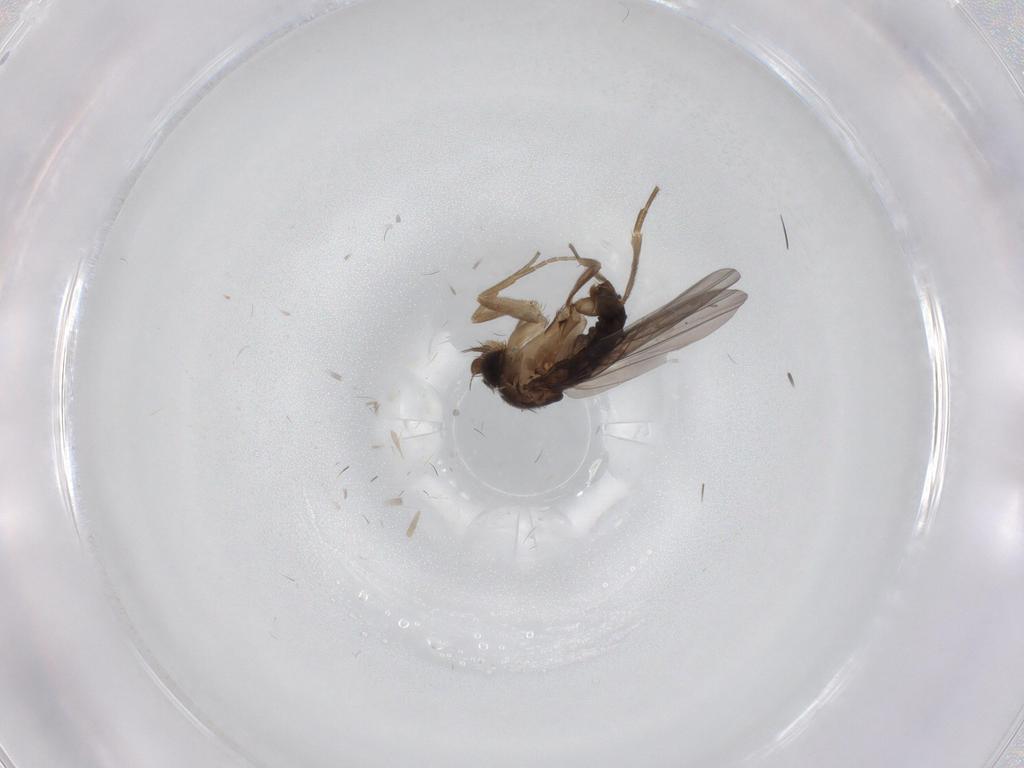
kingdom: Animalia
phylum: Arthropoda
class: Insecta
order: Diptera
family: Phoridae
